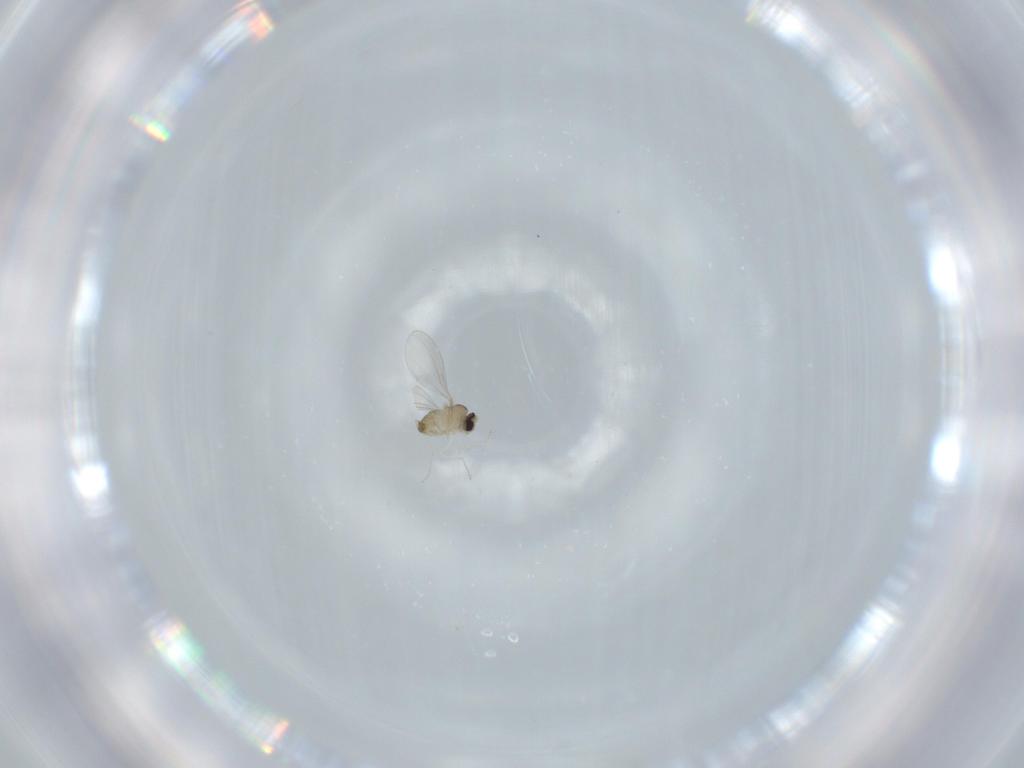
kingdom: Animalia
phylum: Arthropoda
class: Insecta
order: Diptera
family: Cecidomyiidae
